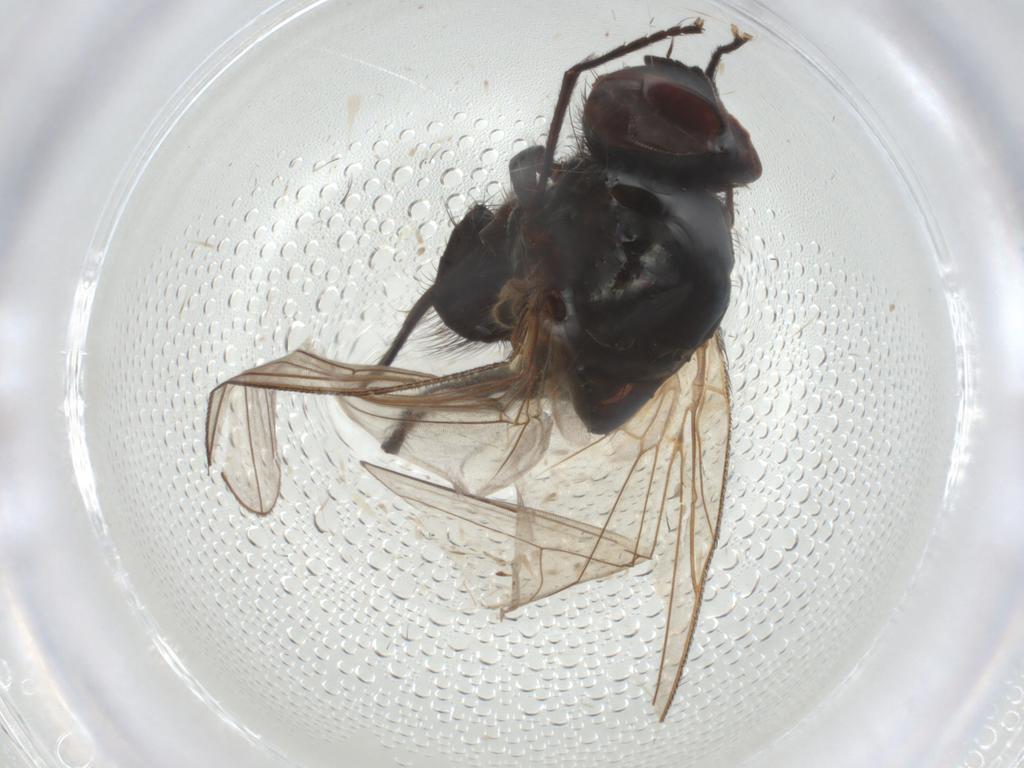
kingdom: Animalia
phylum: Arthropoda
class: Insecta
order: Diptera
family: Anthomyiidae
